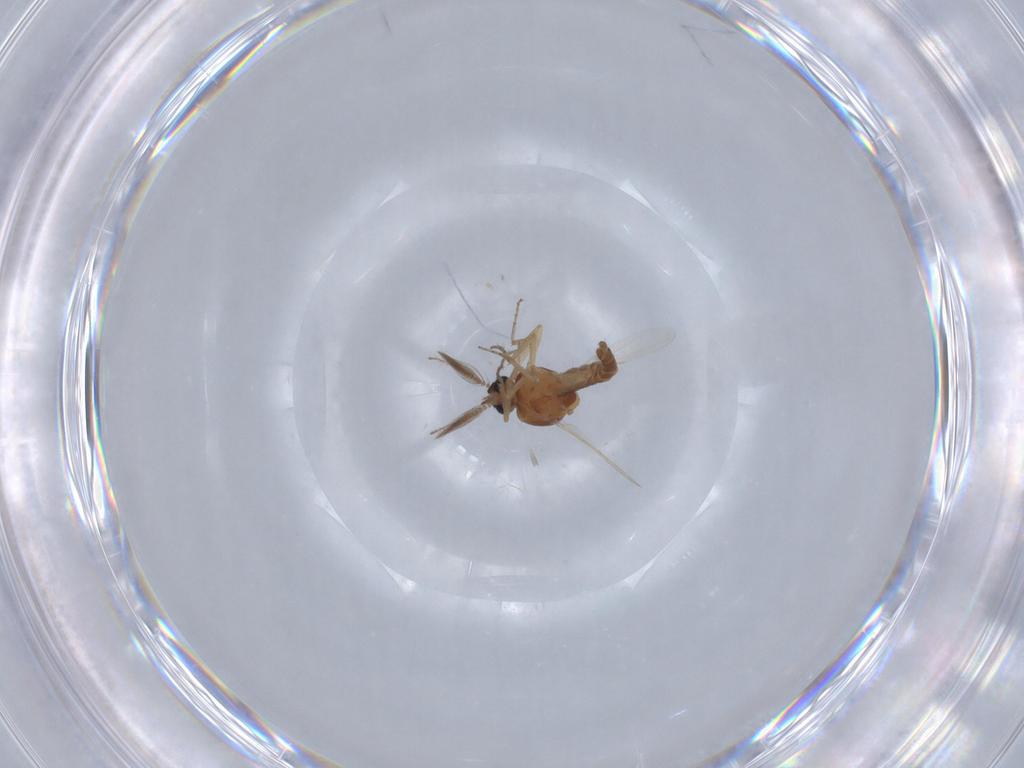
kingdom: Animalia
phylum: Arthropoda
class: Insecta
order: Diptera
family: Ceratopogonidae
